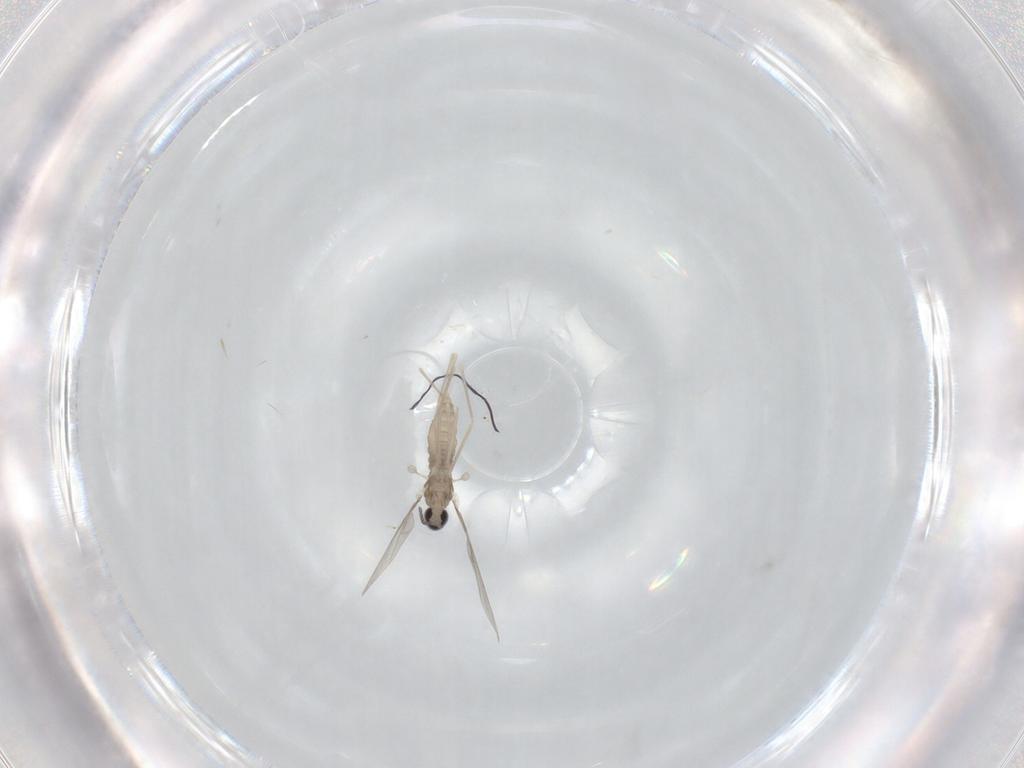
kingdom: Animalia
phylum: Arthropoda
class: Insecta
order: Diptera
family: Cecidomyiidae
